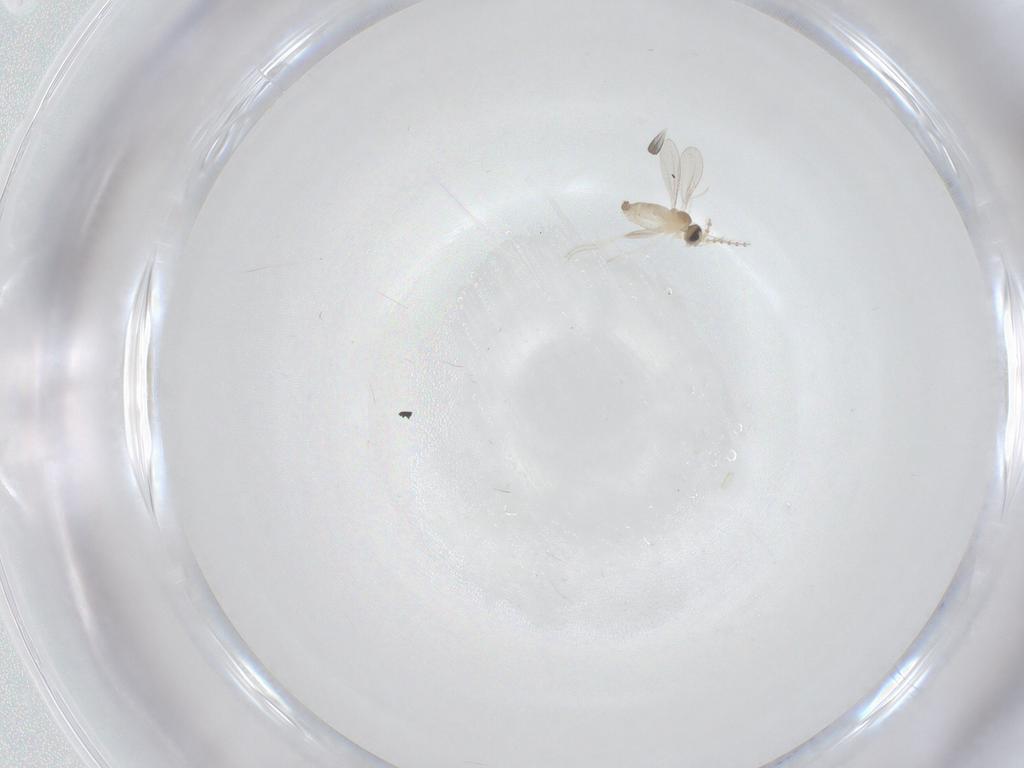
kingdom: Animalia
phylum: Arthropoda
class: Insecta
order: Diptera
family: Cecidomyiidae
